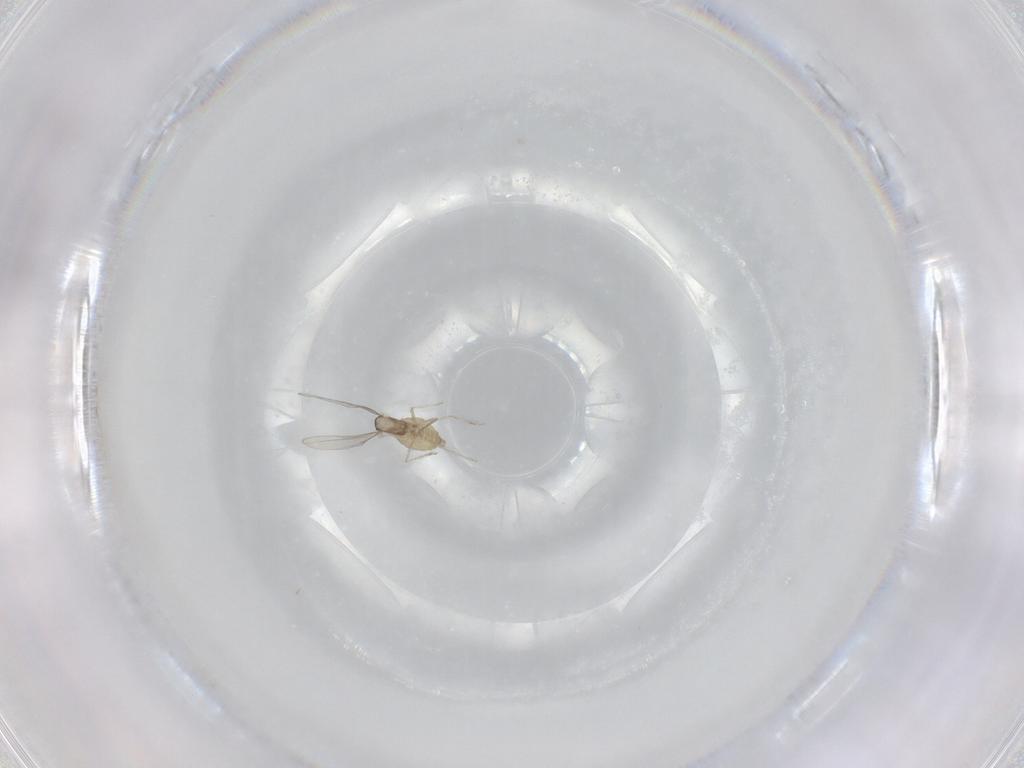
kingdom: Animalia
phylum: Arthropoda
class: Insecta
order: Diptera
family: Cecidomyiidae
